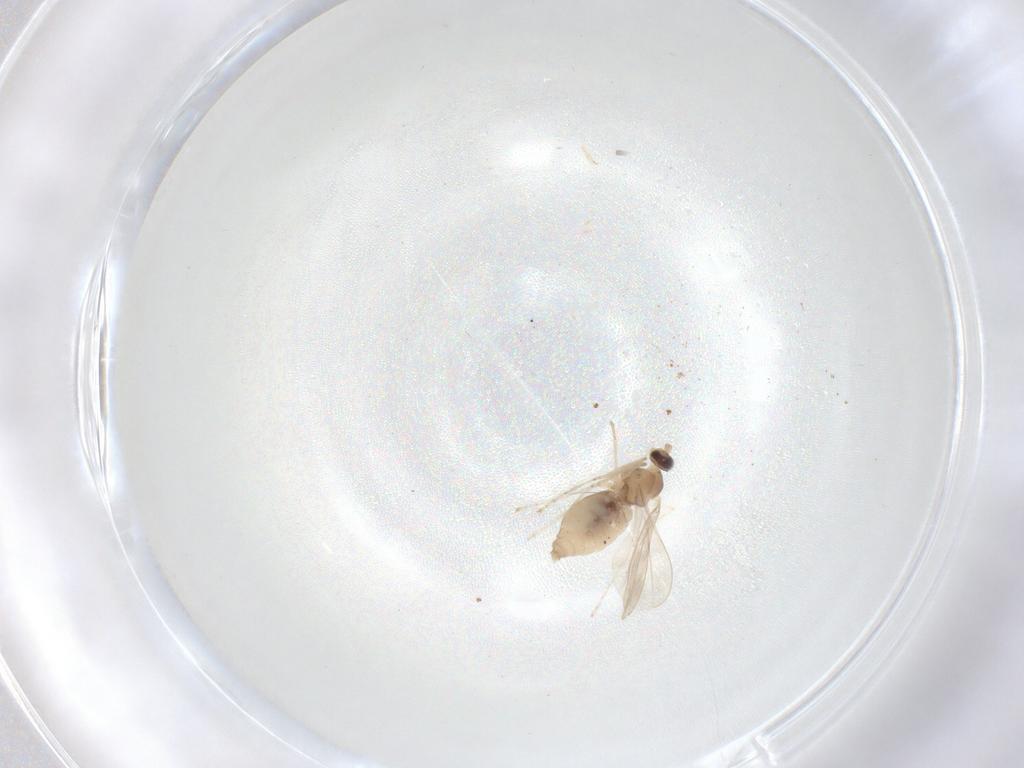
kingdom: Animalia
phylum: Arthropoda
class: Insecta
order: Diptera
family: Cecidomyiidae
